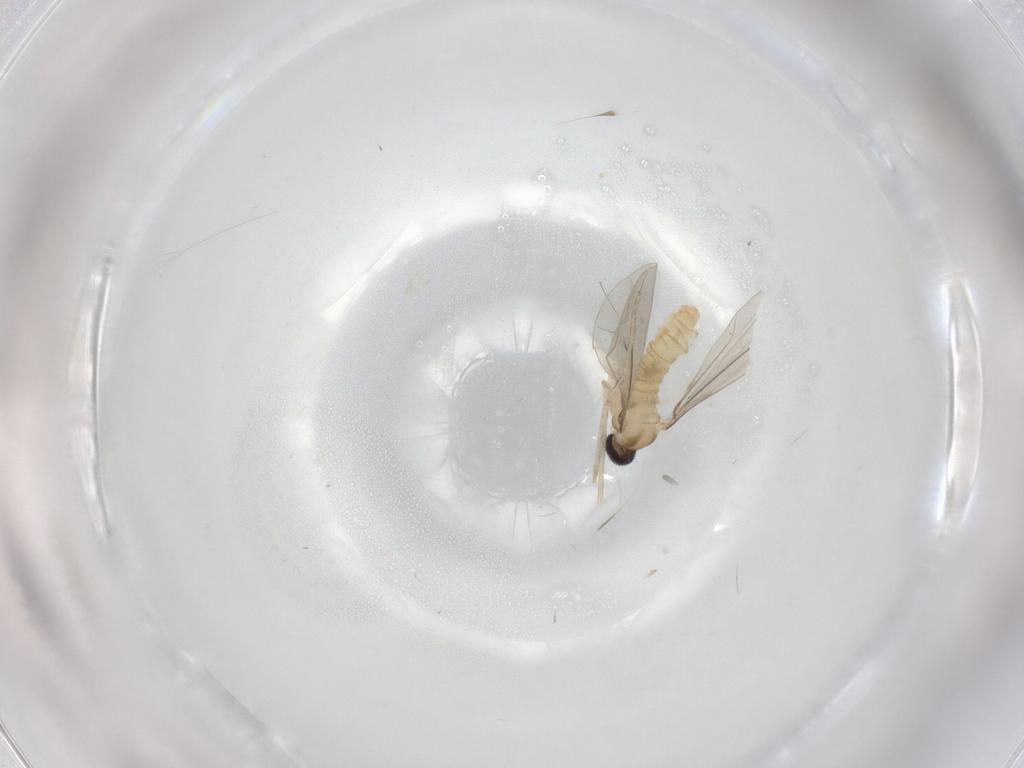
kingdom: Animalia
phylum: Arthropoda
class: Insecta
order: Diptera
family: Cecidomyiidae
